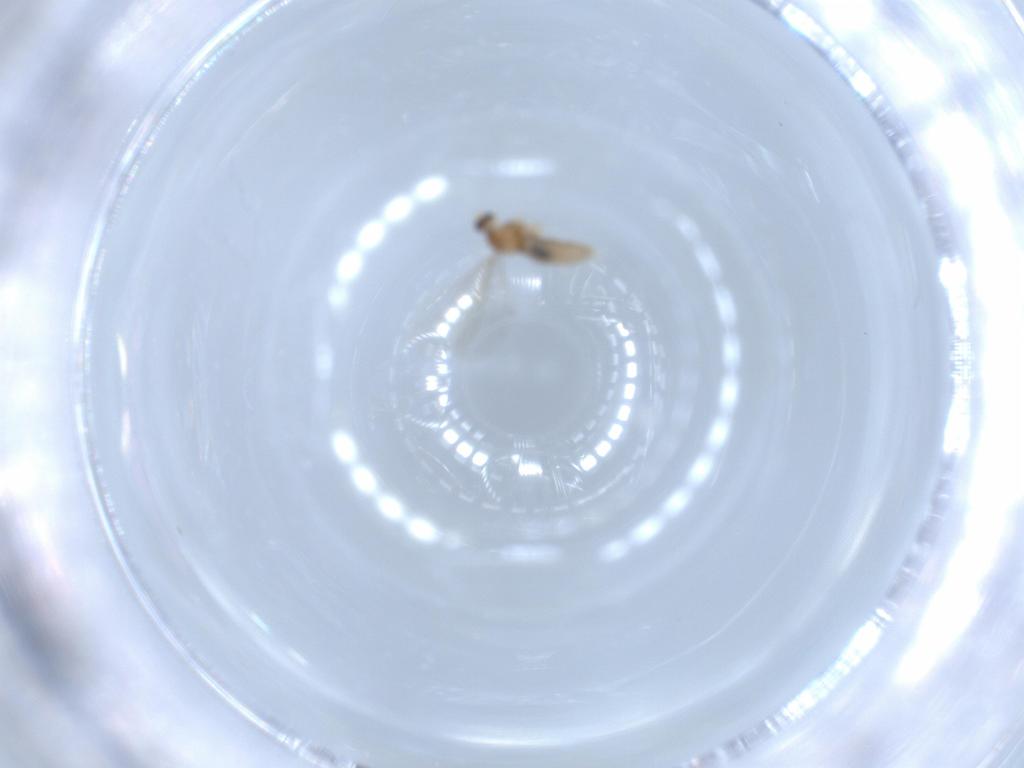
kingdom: Animalia
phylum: Arthropoda
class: Insecta
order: Diptera
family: Cecidomyiidae
